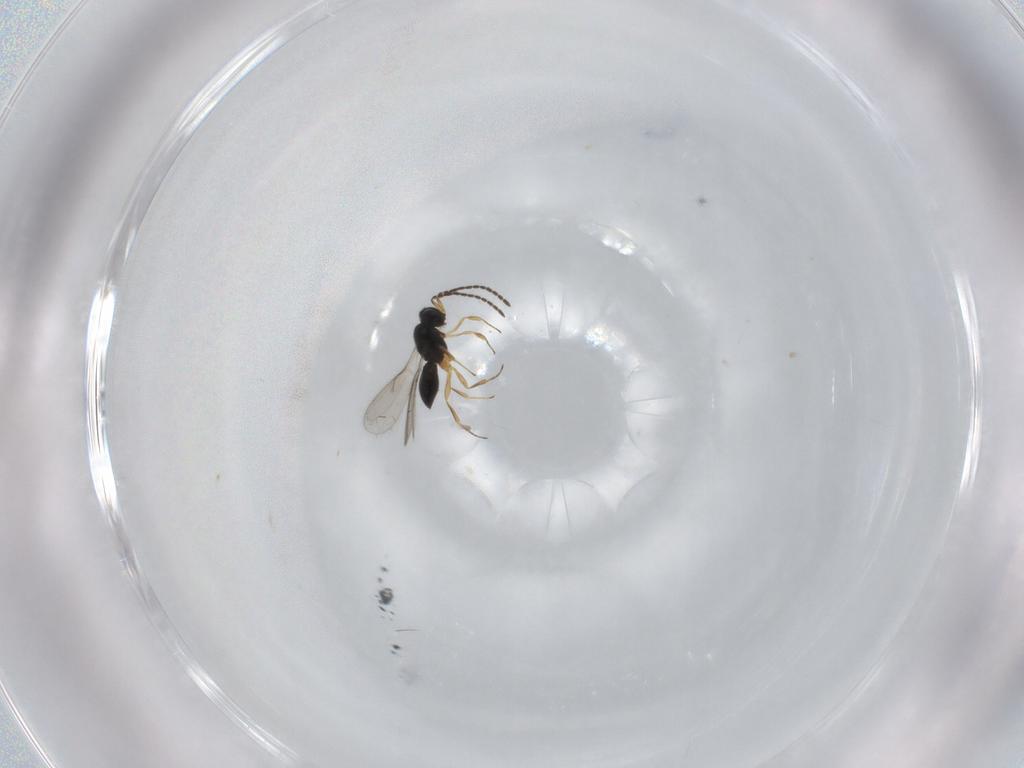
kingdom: Animalia
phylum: Arthropoda
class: Insecta
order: Hymenoptera
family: Scelionidae
